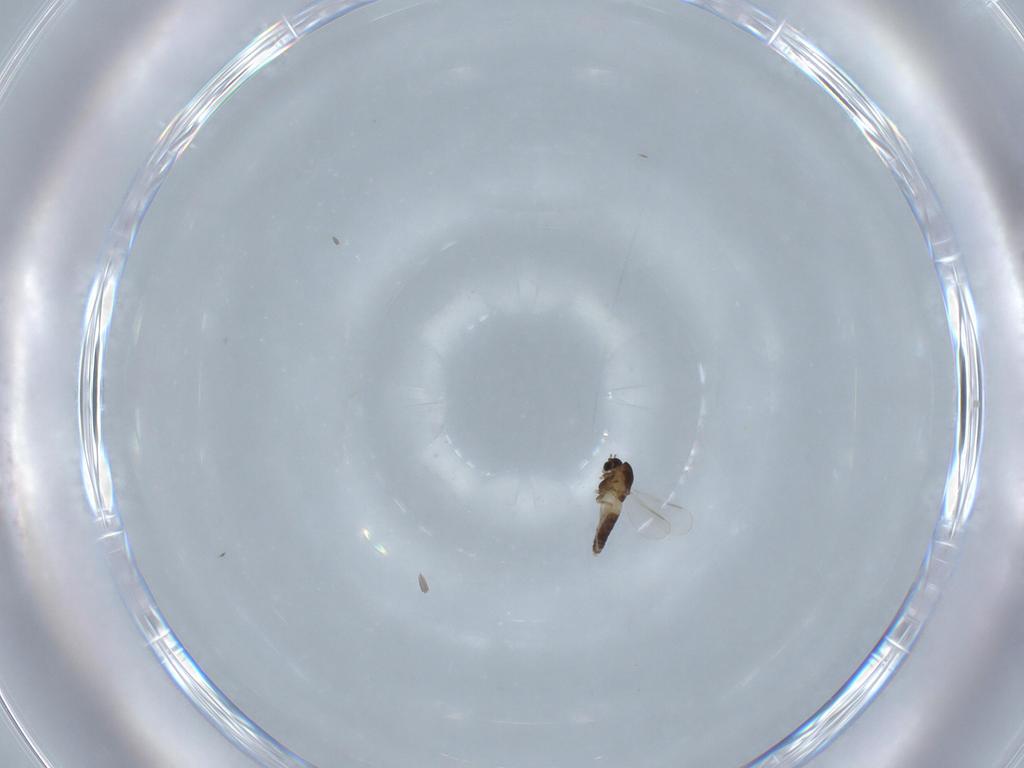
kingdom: Animalia
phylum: Arthropoda
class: Insecta
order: Diptera
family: Chironomidae
